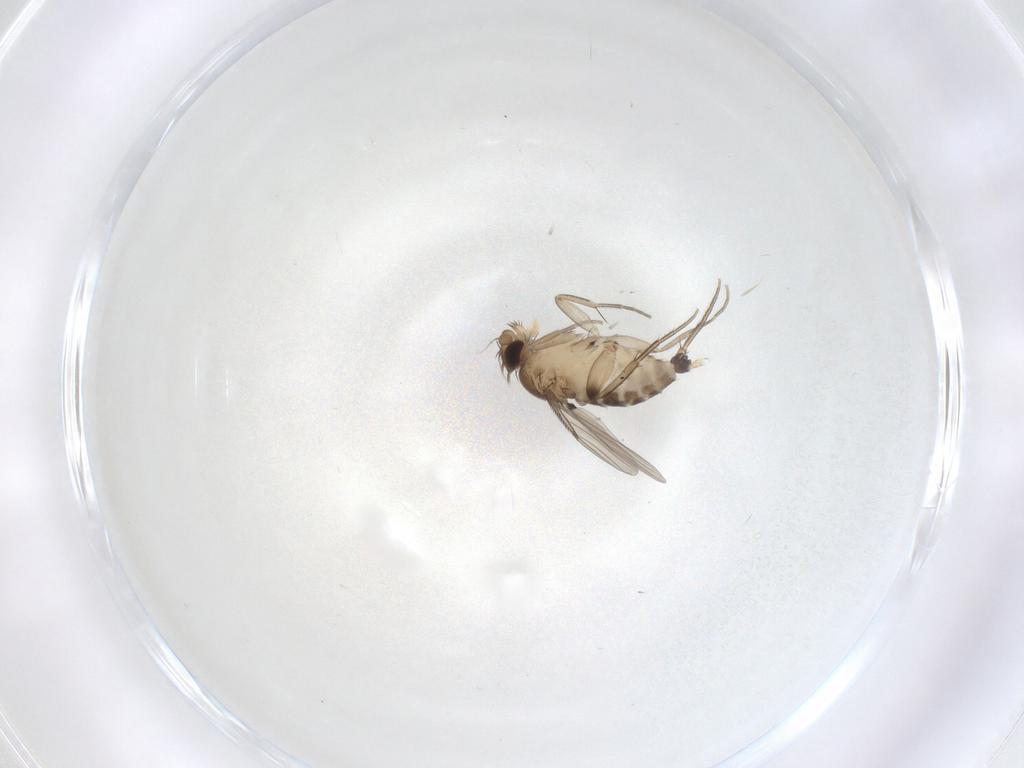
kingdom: Animalia
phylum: Arthropoda
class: Insecta
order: Diptera
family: Phoridae
